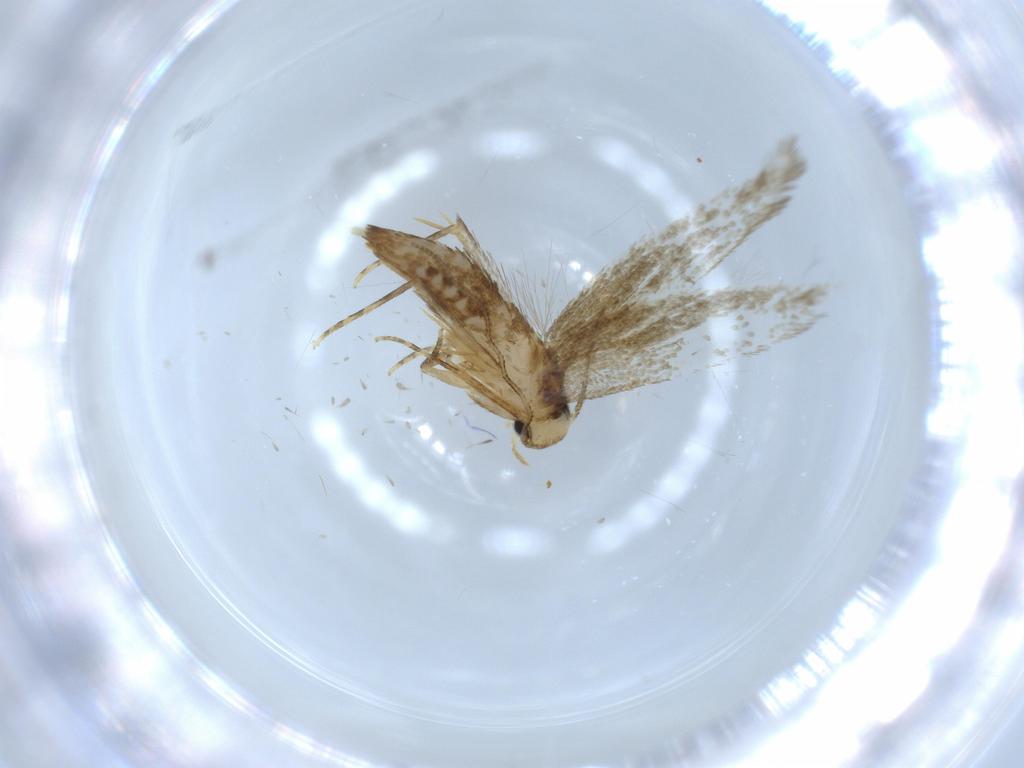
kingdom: Animalia
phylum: Arthropoda
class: Insecta
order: Lepidoptera
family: Tineidae
